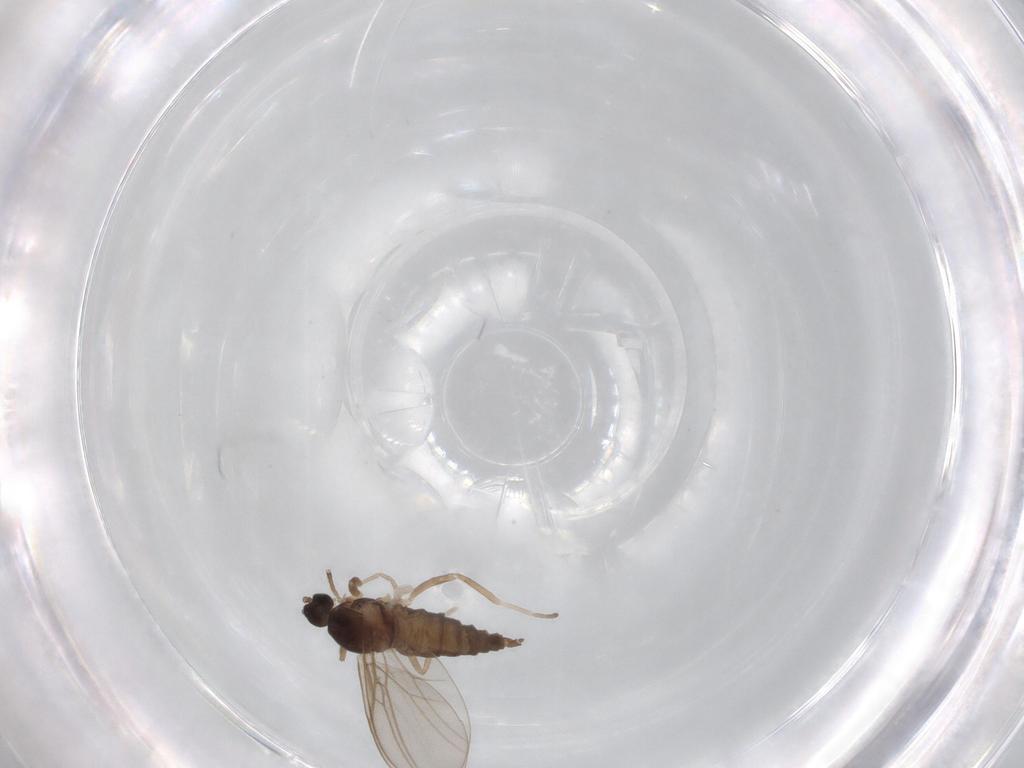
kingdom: Animalia
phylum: Arthropoda
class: Insecta
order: Diptera
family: Cecidomyiidae
